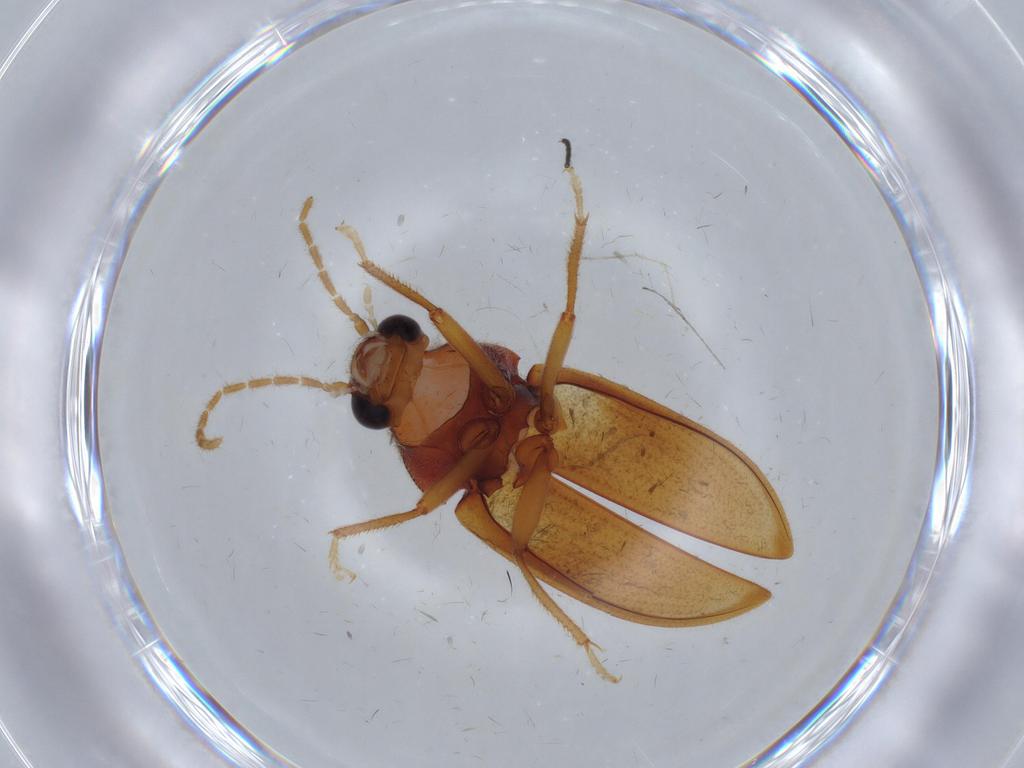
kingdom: Animalia
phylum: Arthropoda
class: Insecta
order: Coleoptera
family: Ptilodactylidae
